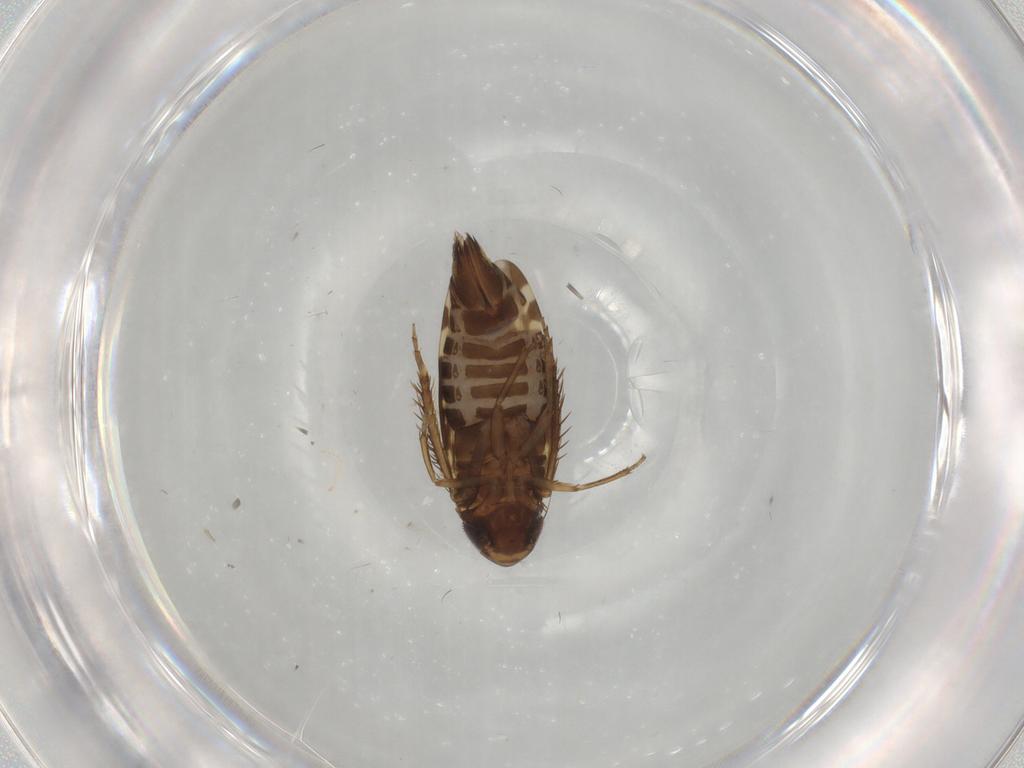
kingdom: Animalia
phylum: Arthropoda
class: Insecta
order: Hemiptera
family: Cicadellidae
